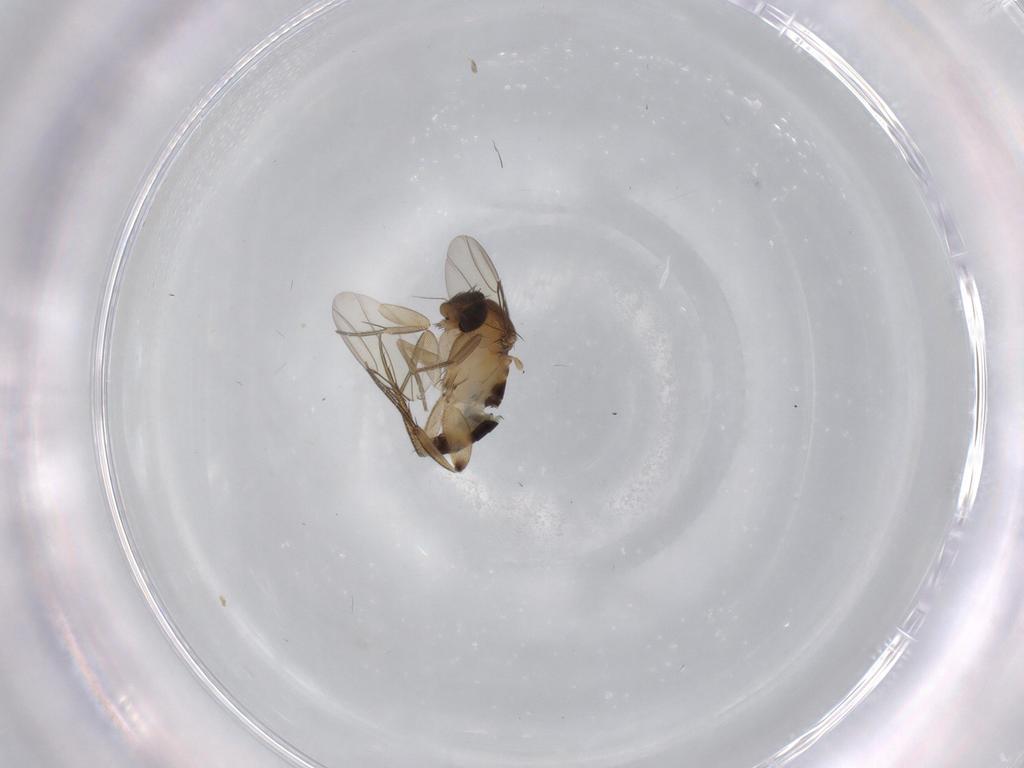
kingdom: Animalia
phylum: Arthropoda
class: Insecta
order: Diptera
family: Phoridae
